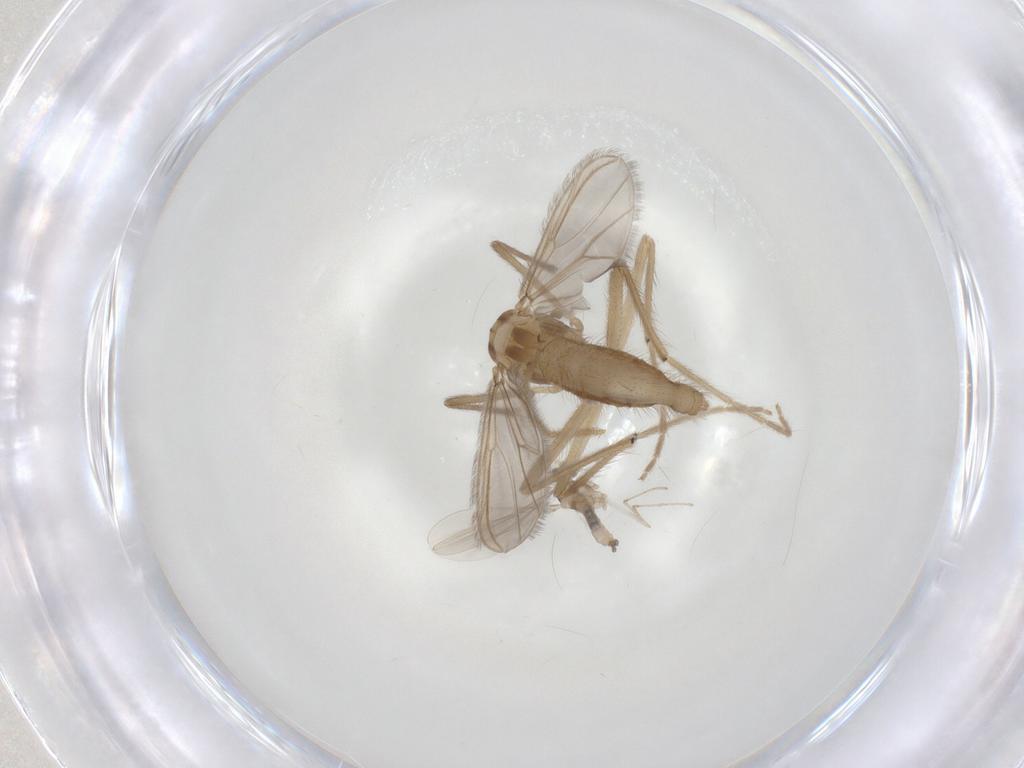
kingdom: Animalia
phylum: Arthropoda
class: Insecta
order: Diptera
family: Chironomidae
